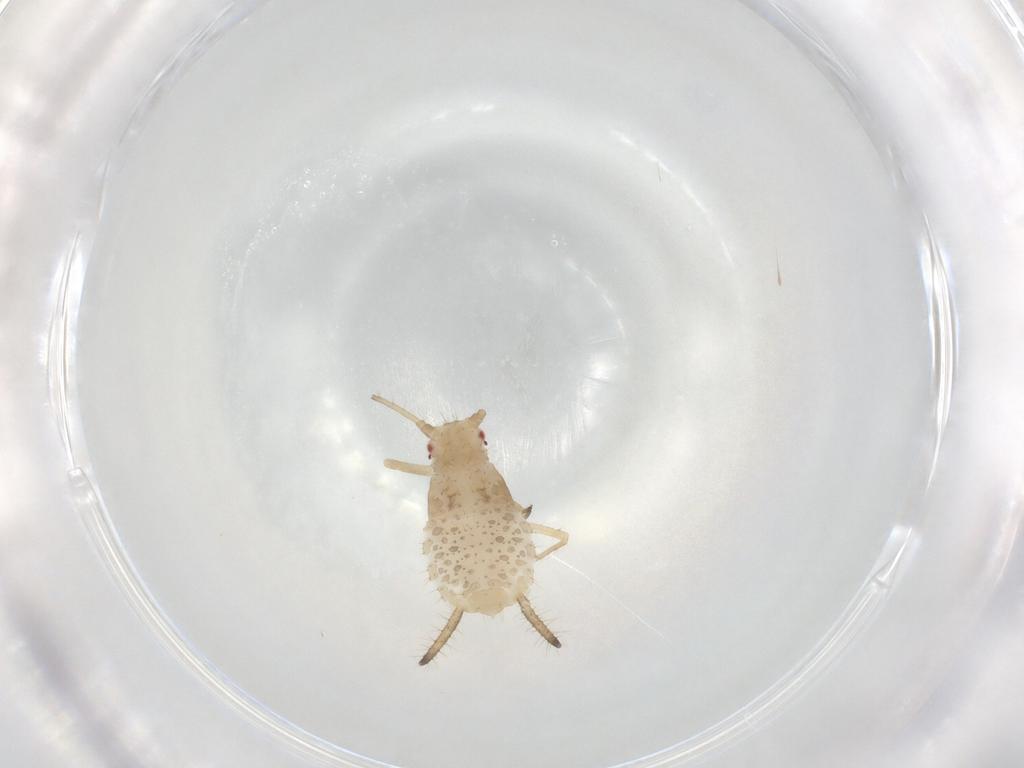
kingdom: Animalia
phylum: Arthropoda
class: Insecta
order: Hemiptera
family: Aphididae
